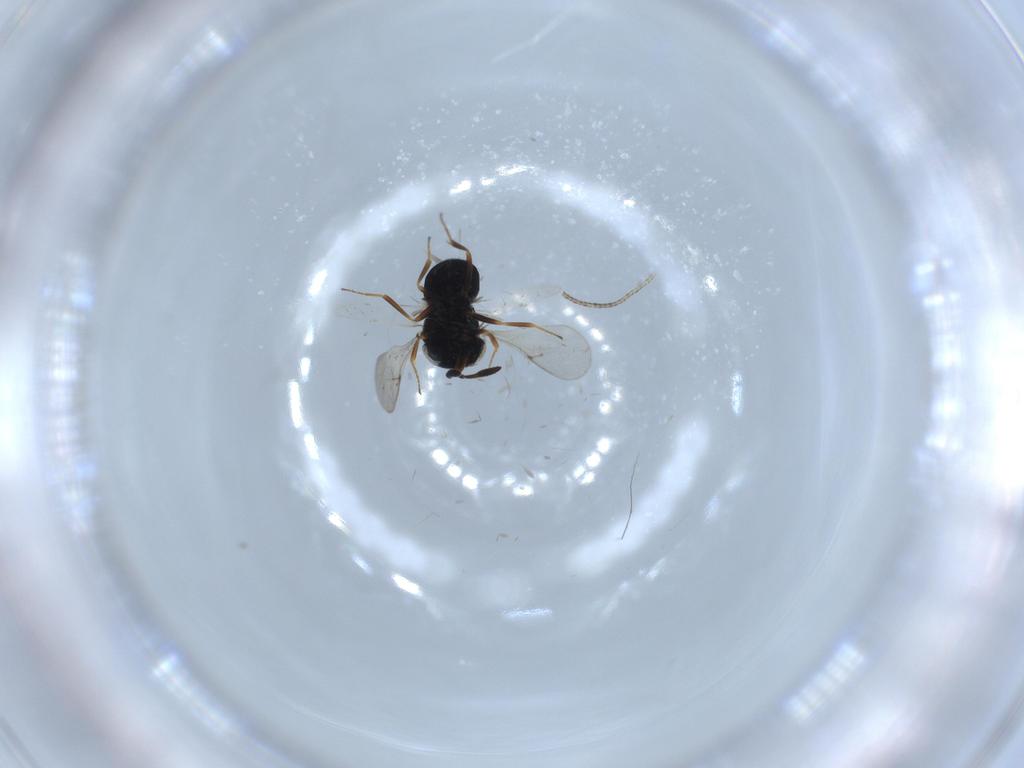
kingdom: Animalia
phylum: Arthropoda
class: Insecta
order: Hymenoptera
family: Scelionidae
